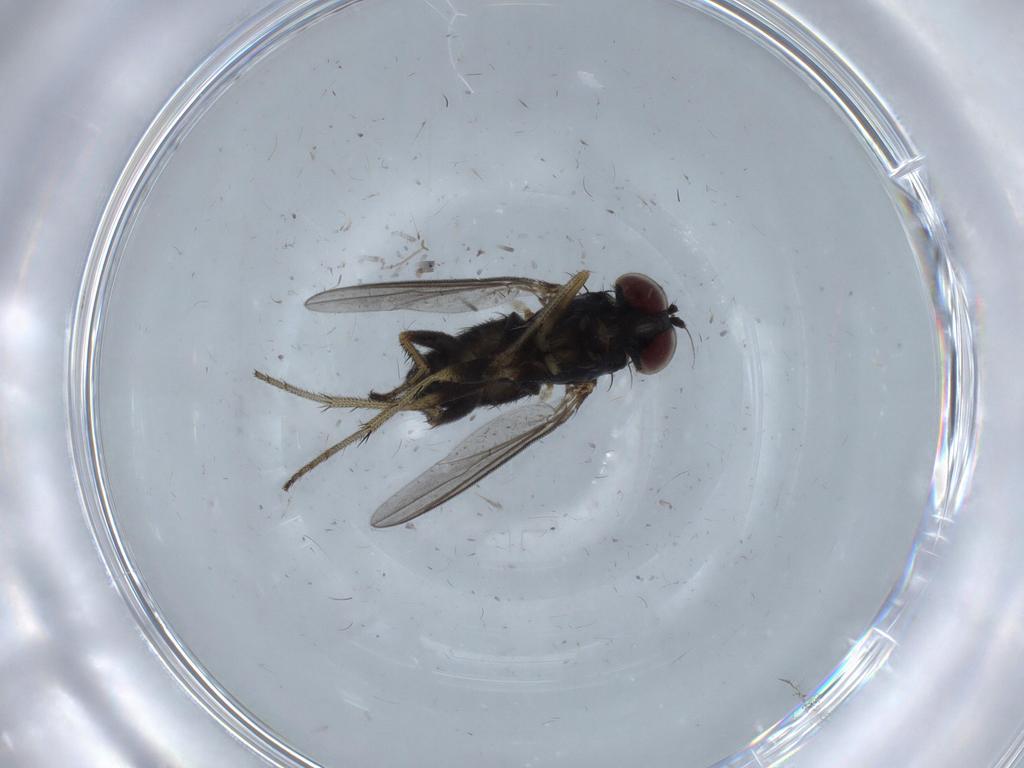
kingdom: Animalia
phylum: Arthropoda
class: Insecta
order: Diptera
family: Dolichopodidae
